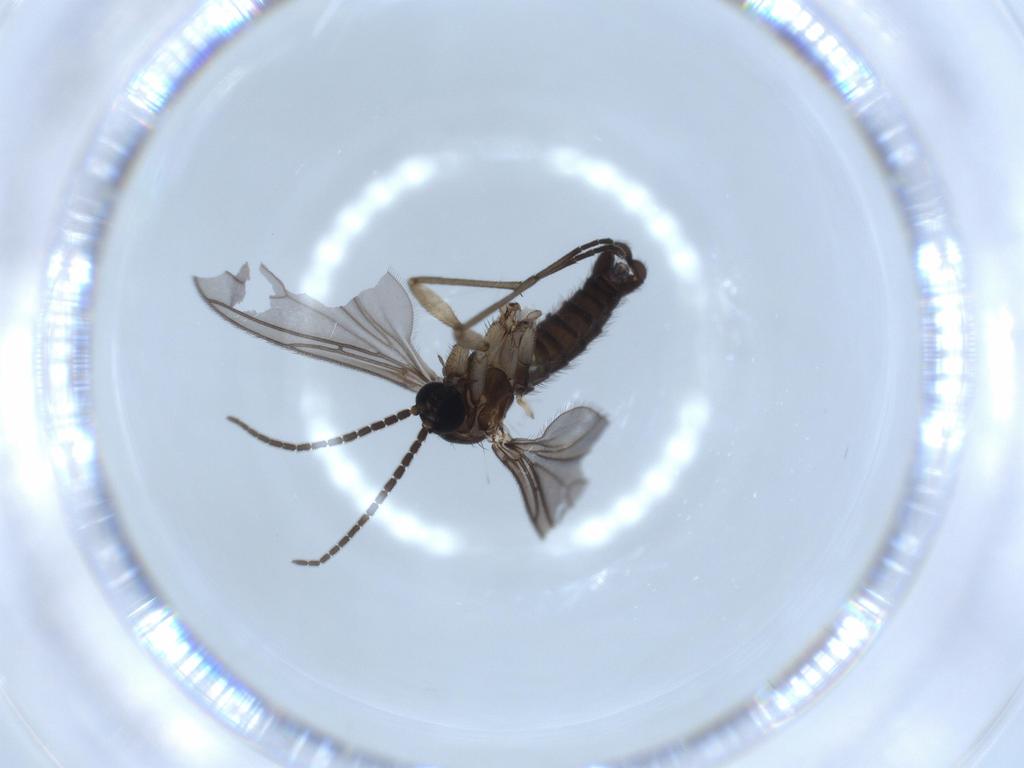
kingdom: Animalia
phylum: Arthropoda
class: Insecta
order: Diptera
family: Sciaridae
